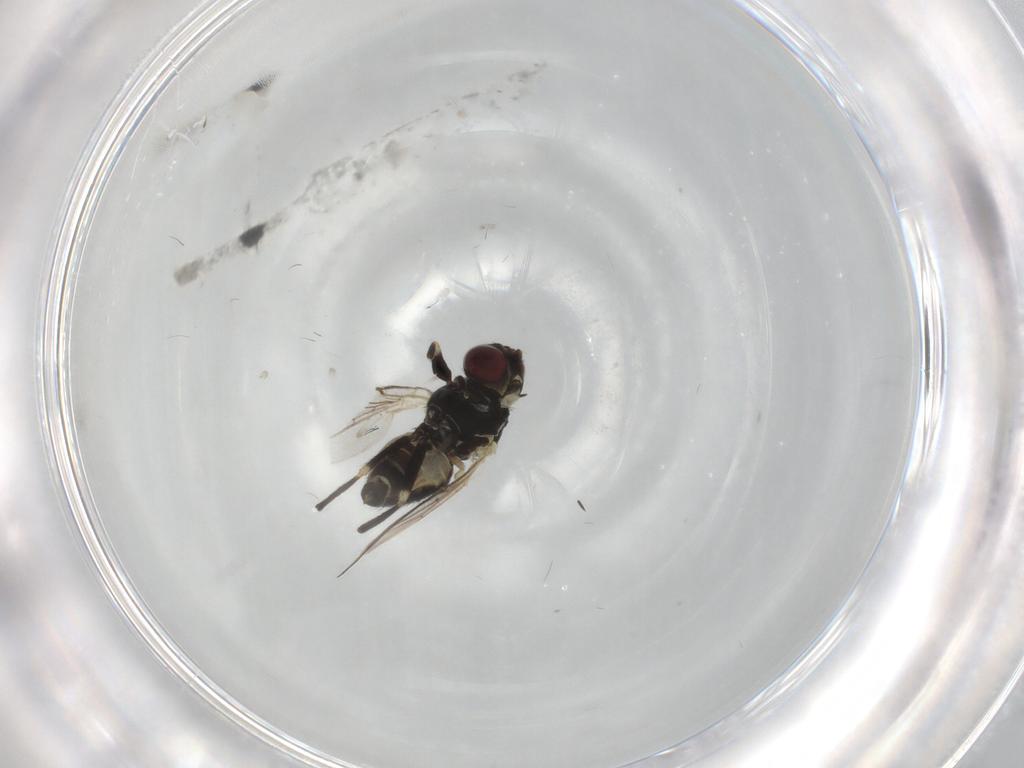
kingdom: Animalia
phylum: Arthropoda
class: Insecta
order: Diptera
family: Agromyzidae
